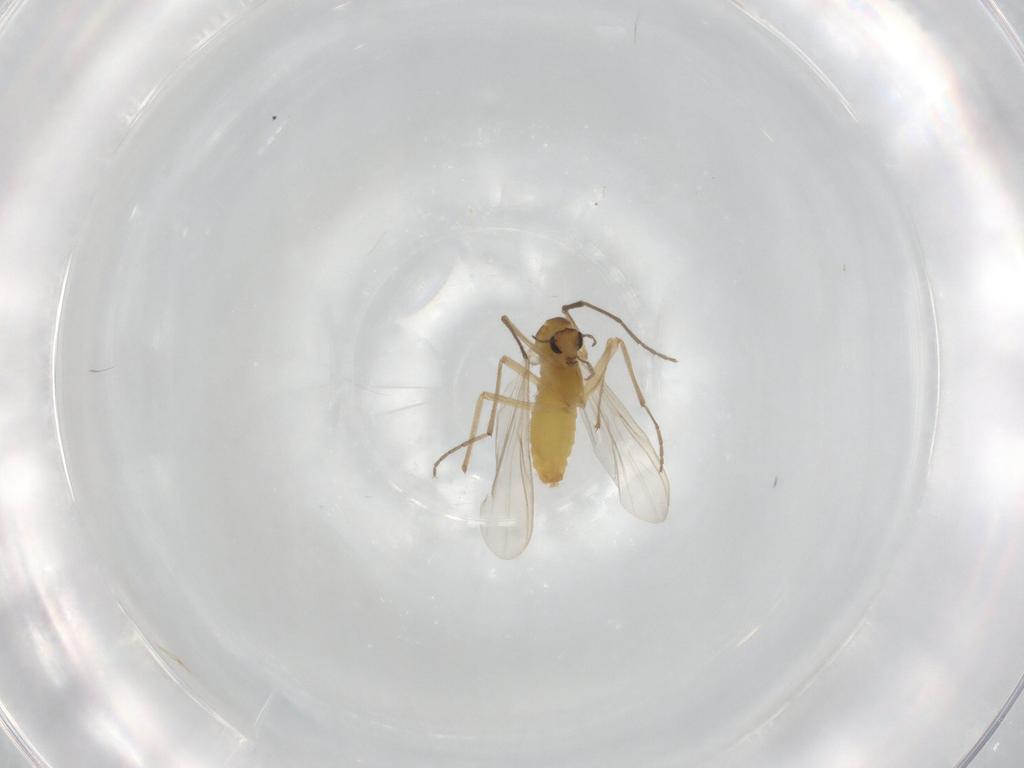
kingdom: Animalia
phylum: Arthropoda
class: Insecta
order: Diptera
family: Chironomidae
